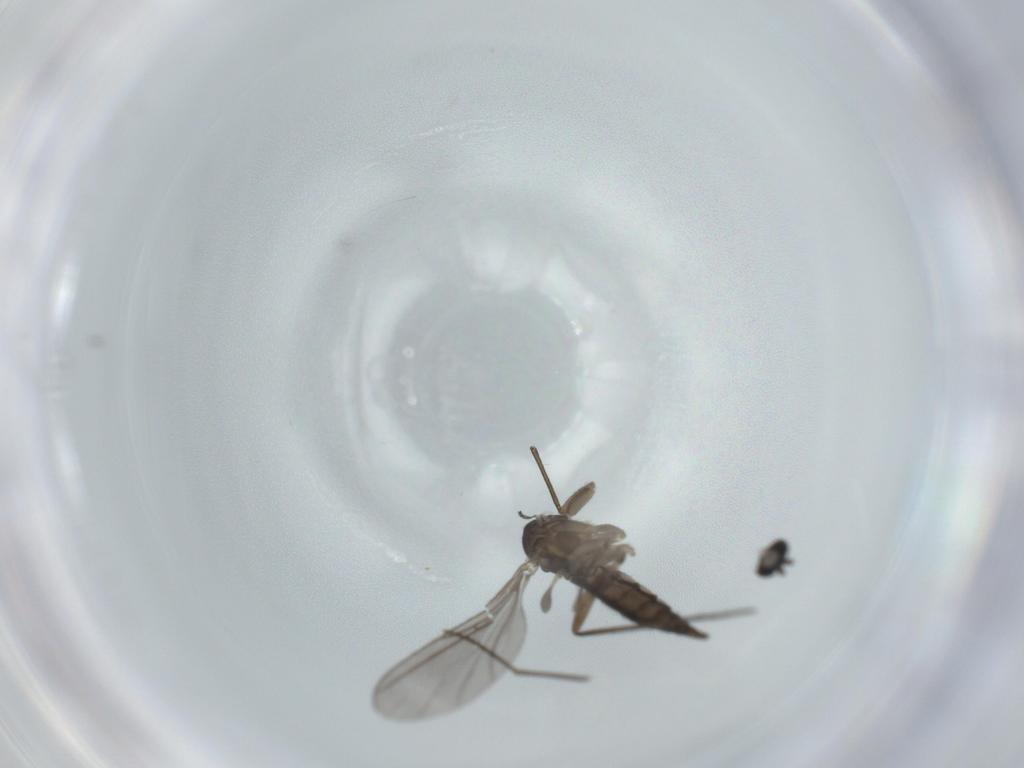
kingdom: Animalia
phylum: Arthropoda
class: Insecta
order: Diptera
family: Sciaridae
